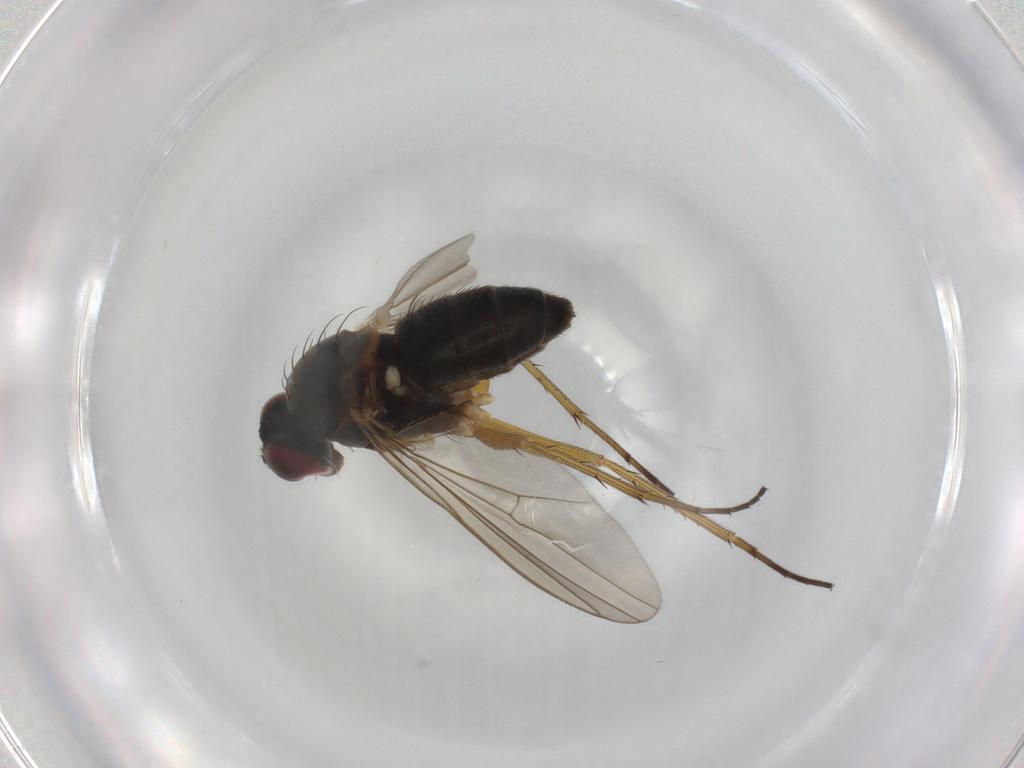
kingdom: Animalia
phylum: Arthropoda
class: Insecta
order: Diptera
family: Dolichopodidae
